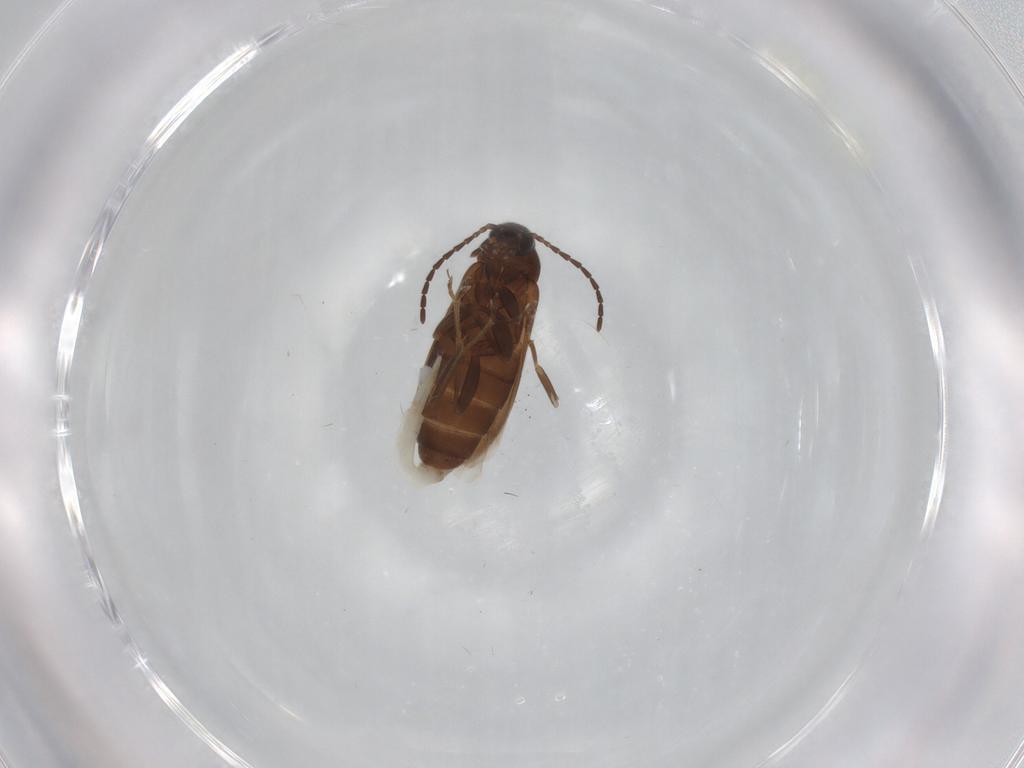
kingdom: Animalia
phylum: Arthropoda
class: Insecta
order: Coleoptera
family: Scraptiidae
